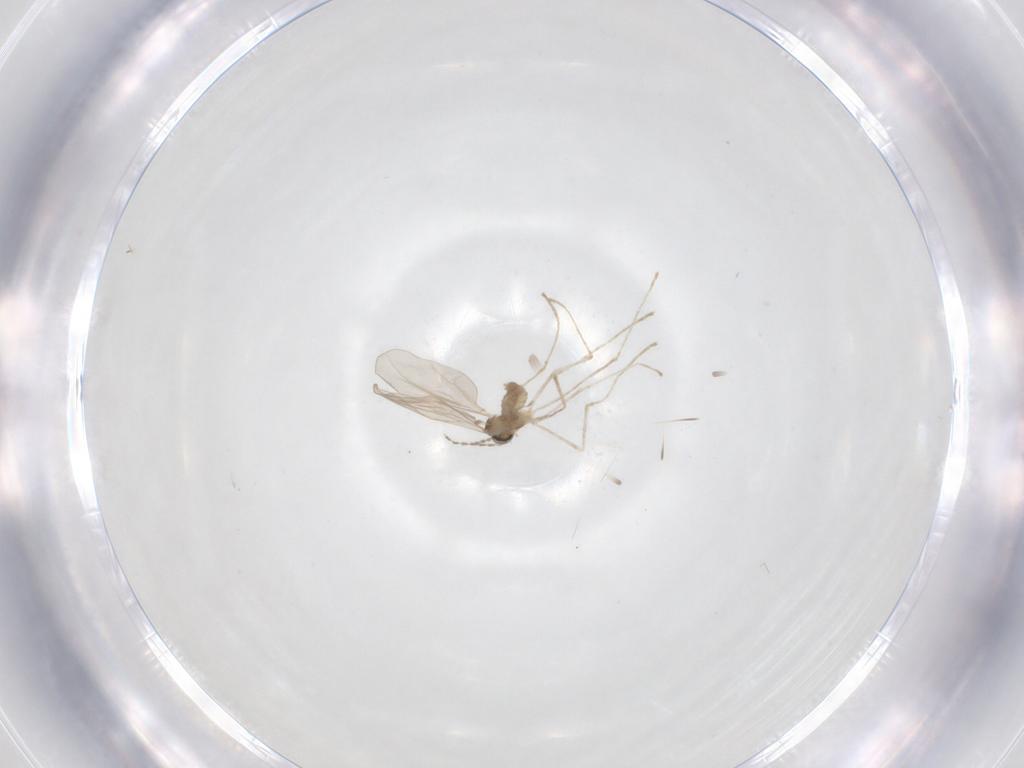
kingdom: Animalia
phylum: Arthropoda
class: Insecta
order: Diptera
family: Cecidomyiidae
